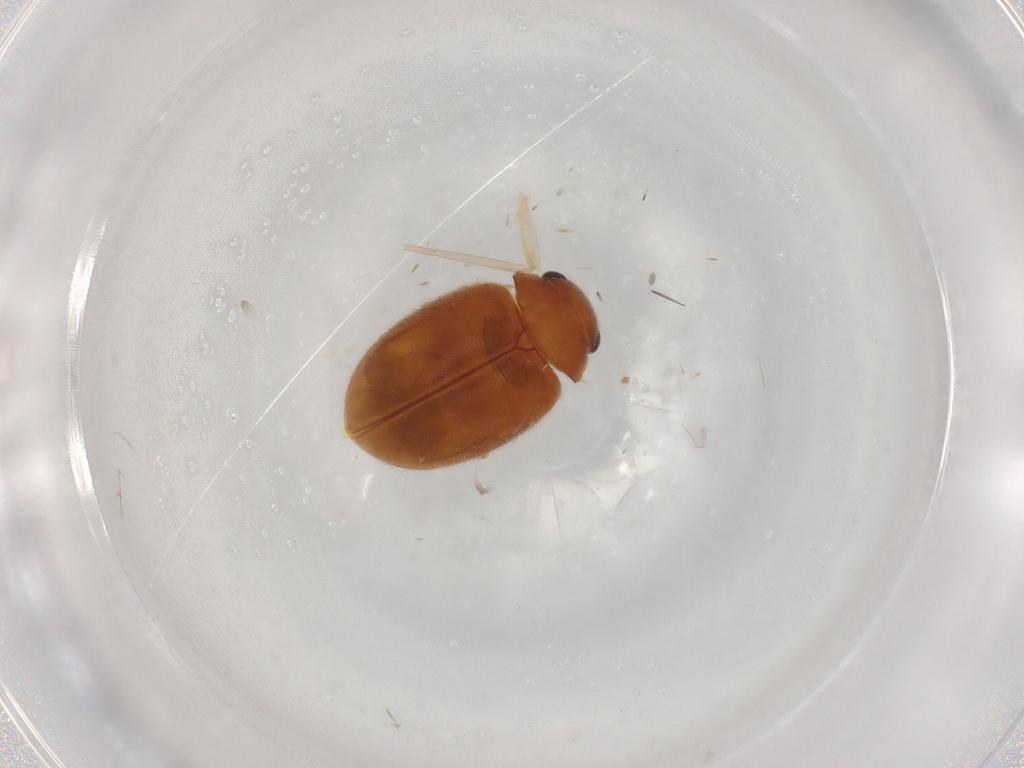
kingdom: Animalia
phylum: Arthropoda
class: Insecta
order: Coleoptera
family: Scirtidae
